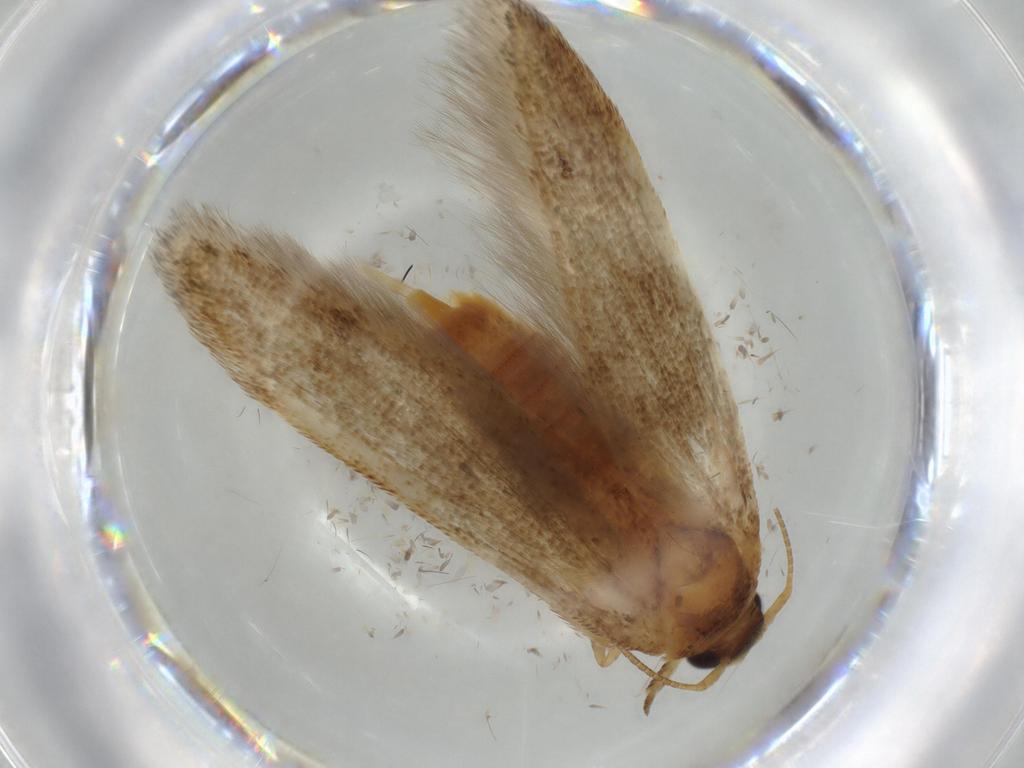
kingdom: Animalia
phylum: Arthropoda
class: Insecta
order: Lepidoptera
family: Coleophoridae
